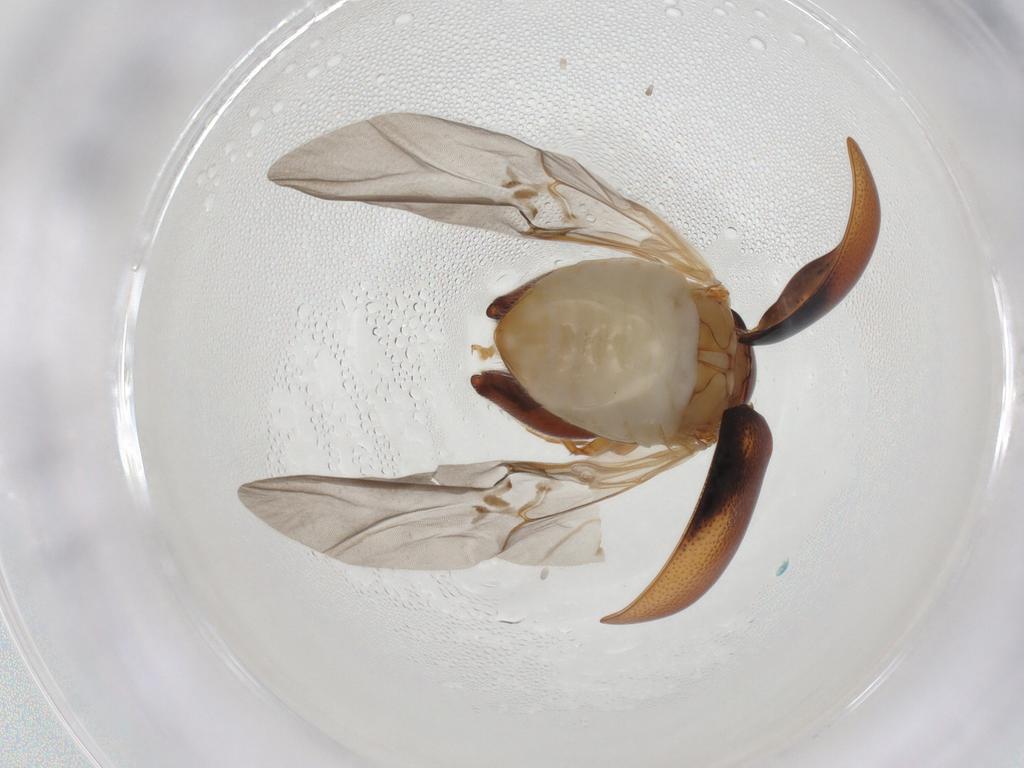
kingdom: Animalia
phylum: Arthropoda
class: Insecta
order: Coleoptera
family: Chrysomelidae
